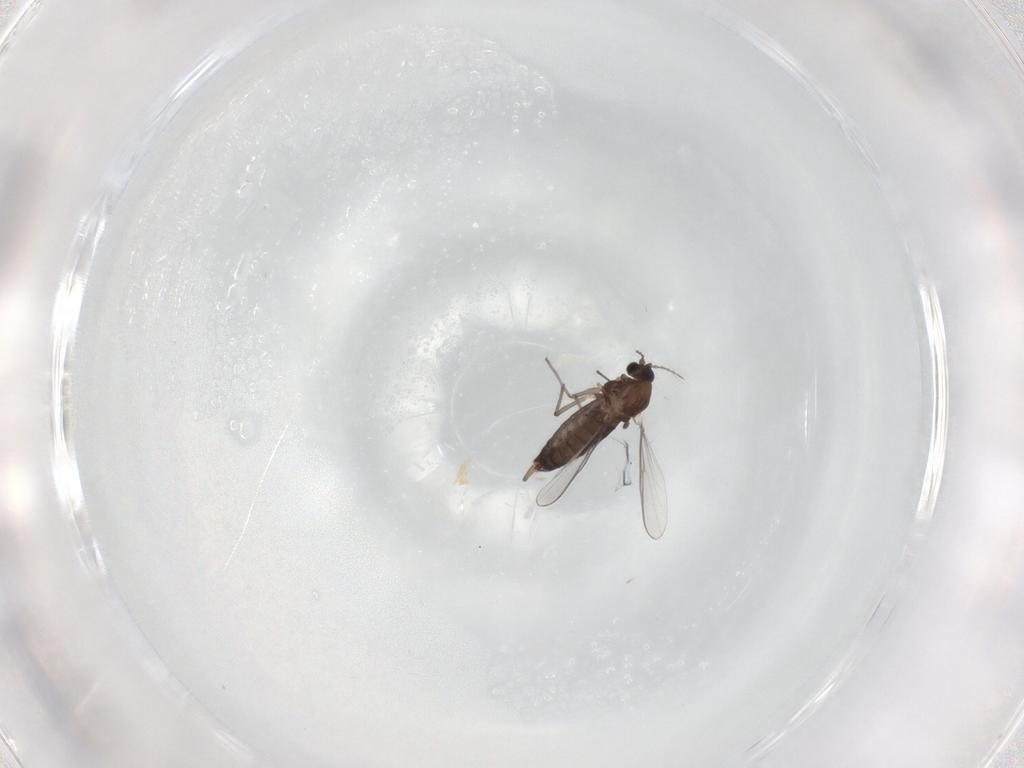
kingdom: Animalia
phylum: Arthropoda
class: Insecta
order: Diptera
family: Chironomidae
